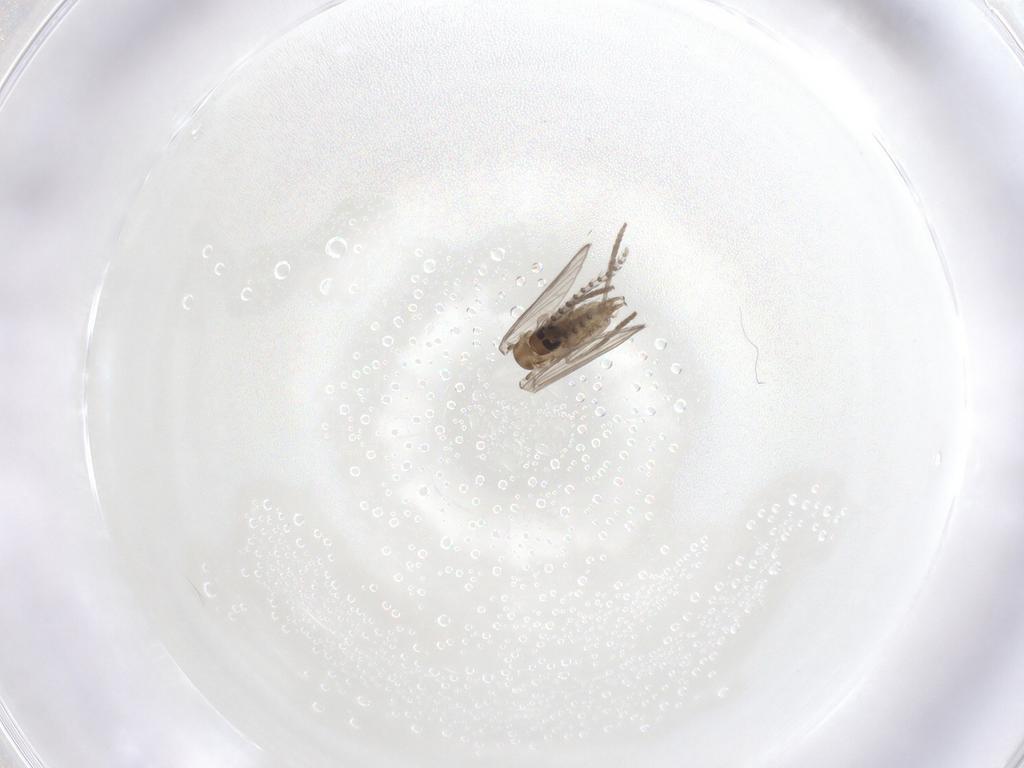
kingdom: Animalia
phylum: Arthropoda
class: Insecta
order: Diptera
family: Psychodidae
